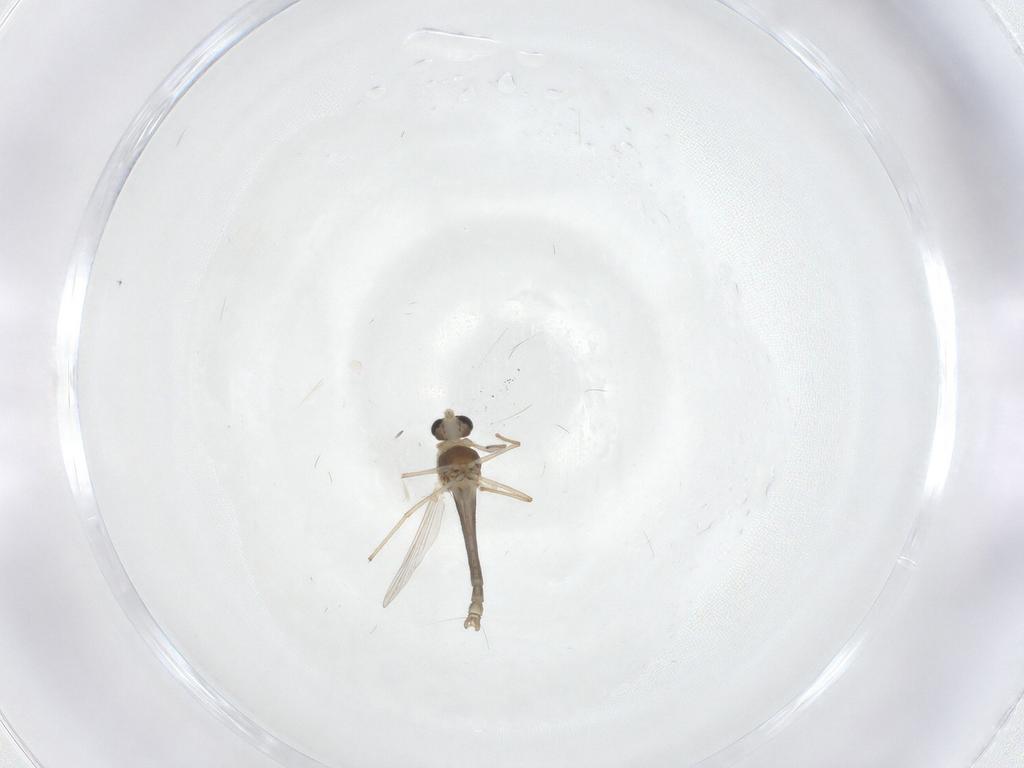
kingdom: Animalia
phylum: Arthropoda
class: Insecta
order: Diptera
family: Chironomidae
